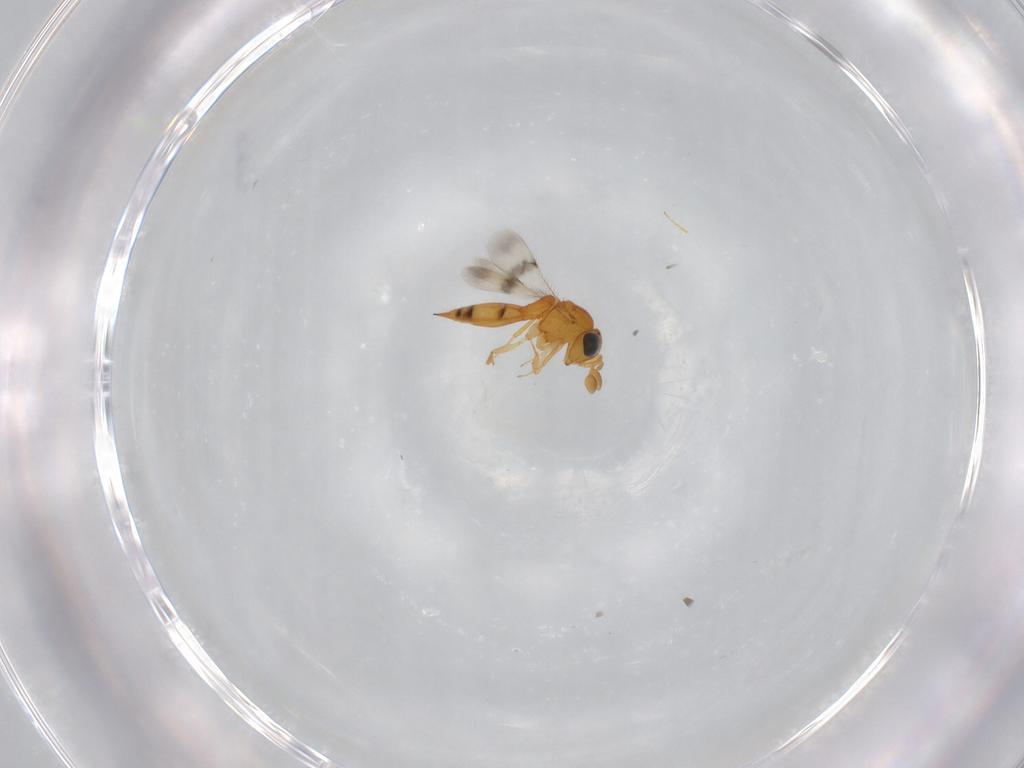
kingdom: Animalia
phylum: Arthropoda
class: Insecta
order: Hymenoptera
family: Scelionidae
